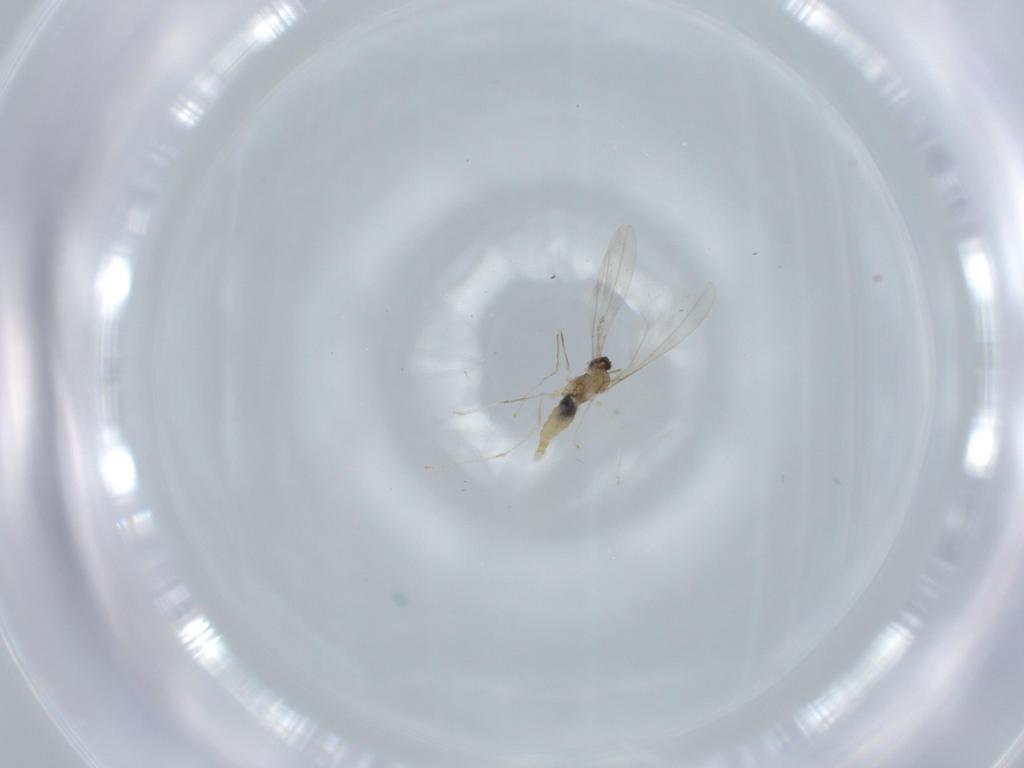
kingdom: Animalia
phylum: Arthropoda
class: Insecta
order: Diptera
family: Cecidomyiidae
